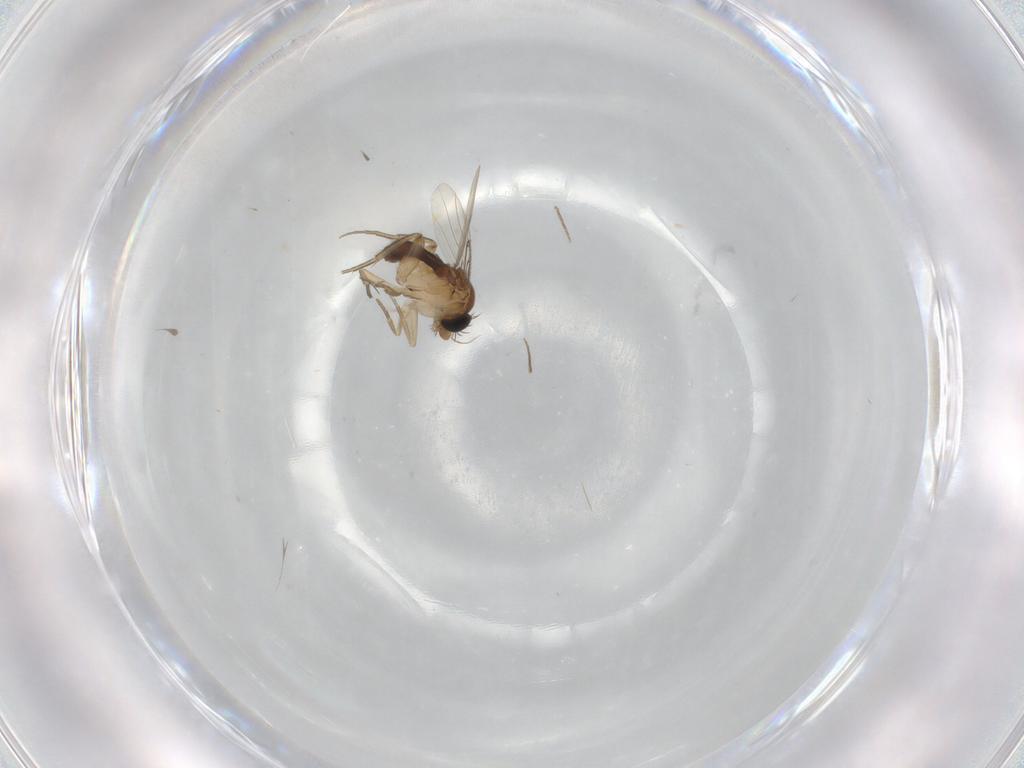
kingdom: Animalia
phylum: Arthropoda
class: Insecta
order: Diptera
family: Phoridae
